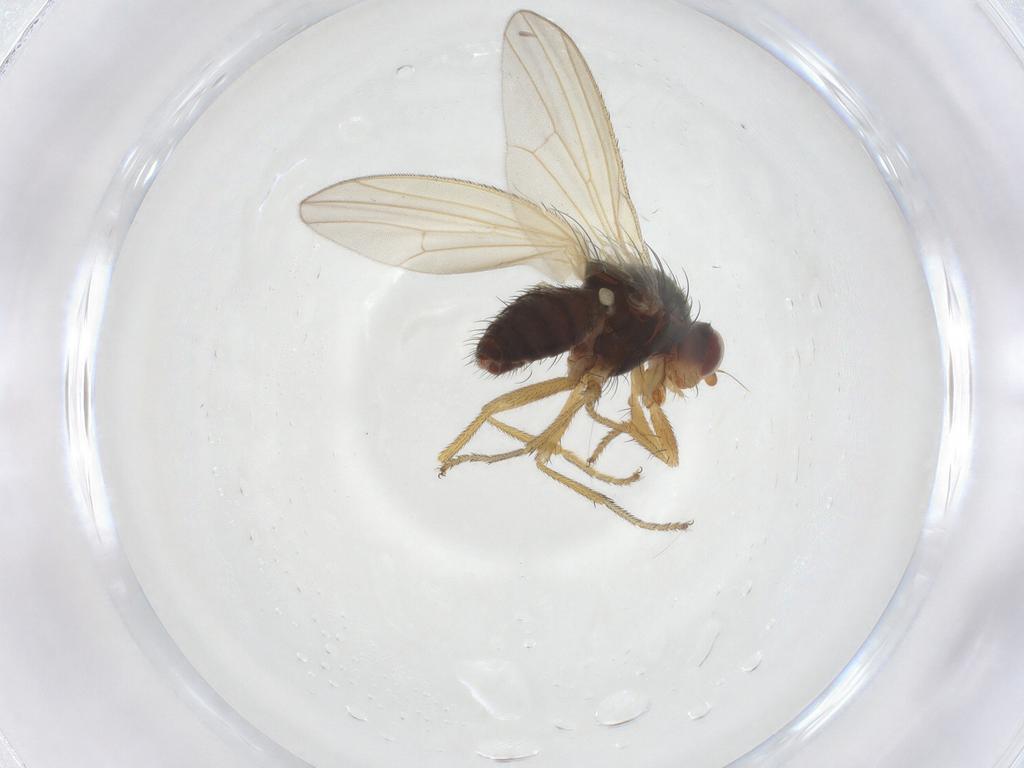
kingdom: Animalia
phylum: Arthropoda
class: Insecta
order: Diptera
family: Heleomyzidae
